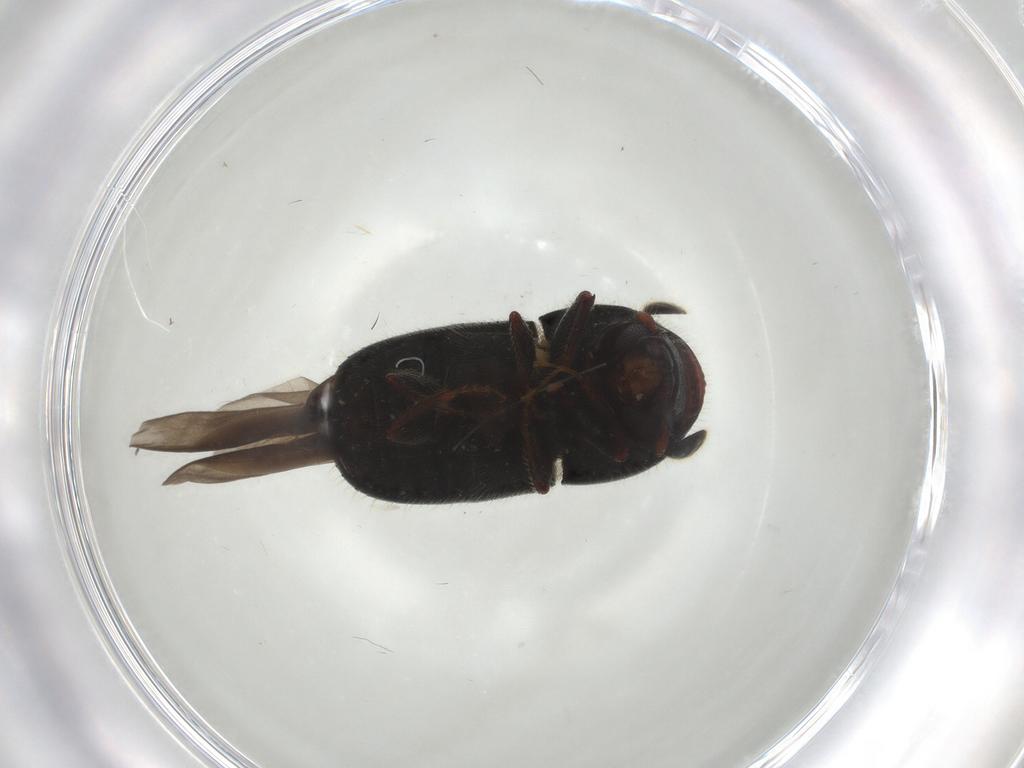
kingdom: Animalia
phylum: Arthropoda
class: Insecta
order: Coleoptera
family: Curculionidae
